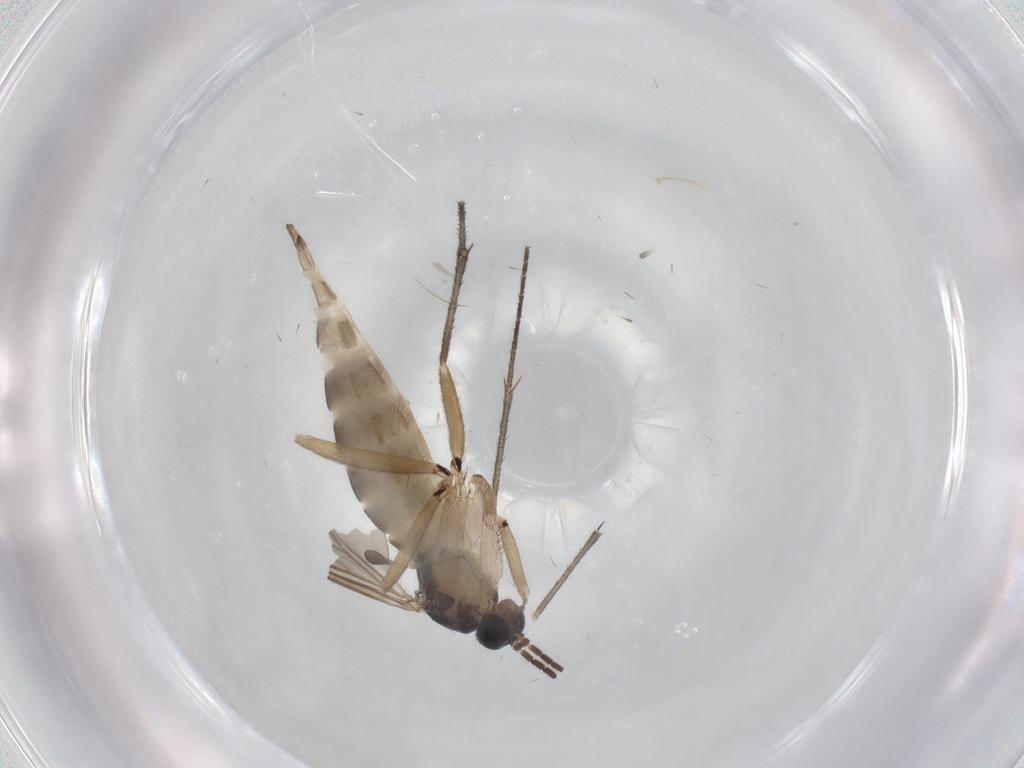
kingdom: Animalia
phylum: Arthropoda
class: Insecta
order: Diptera
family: Sciaridae
